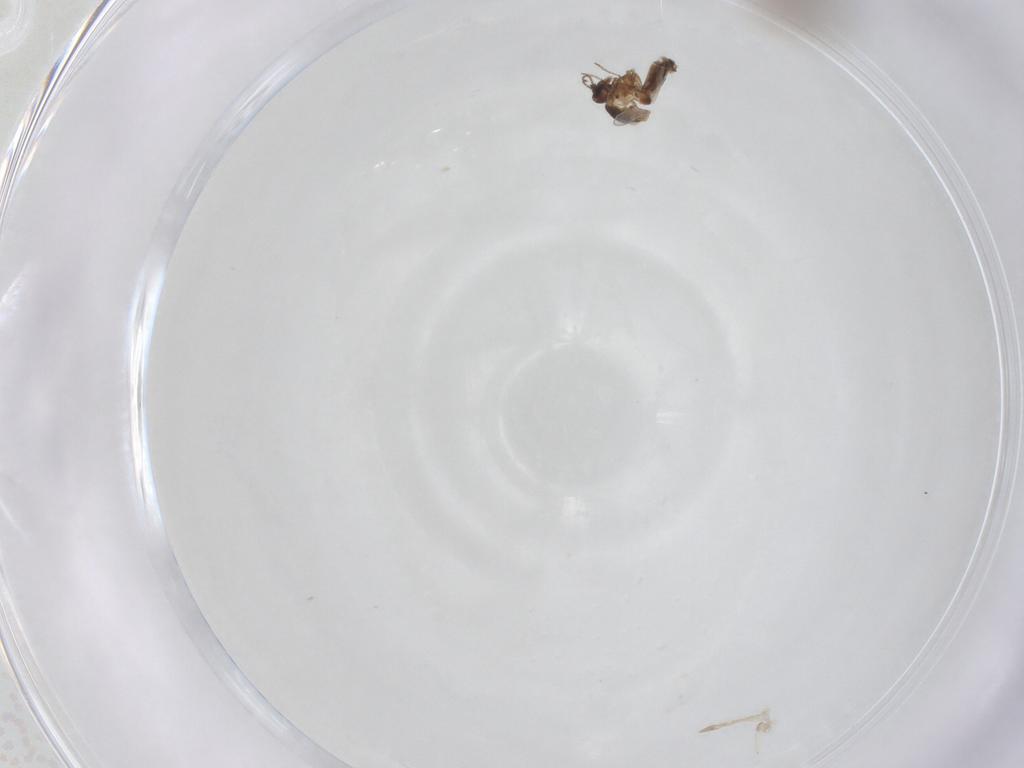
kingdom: Animalia
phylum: Arthropoda
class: Insecta
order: Diptera
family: Ceratopogonidae
